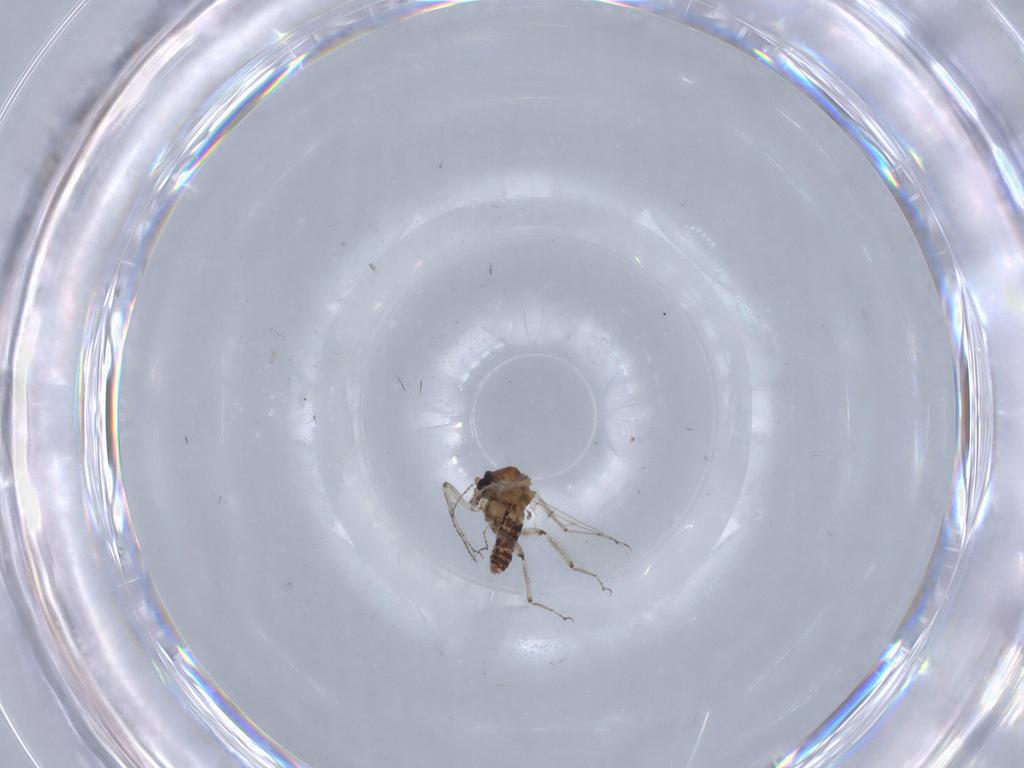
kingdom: Animalia
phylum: Arthropoda
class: Insecta
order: Diptera
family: Ceratopogonidae
